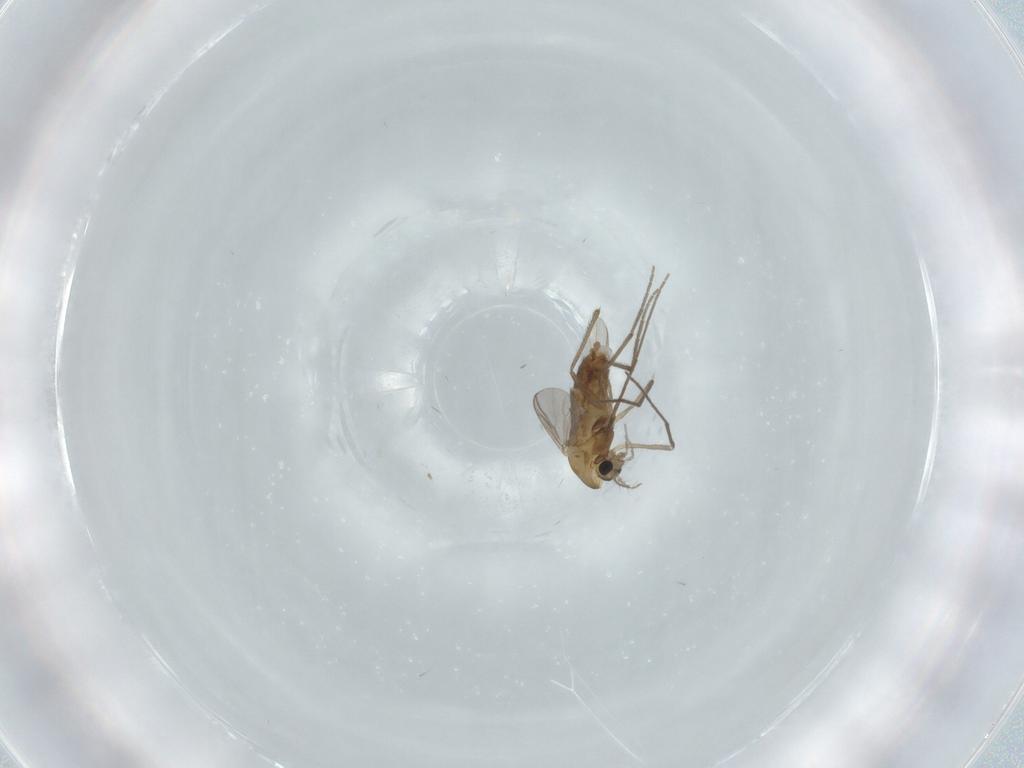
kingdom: Animalia
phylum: Arthropoda
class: Insecta
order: Diptera
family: Chironomidae
